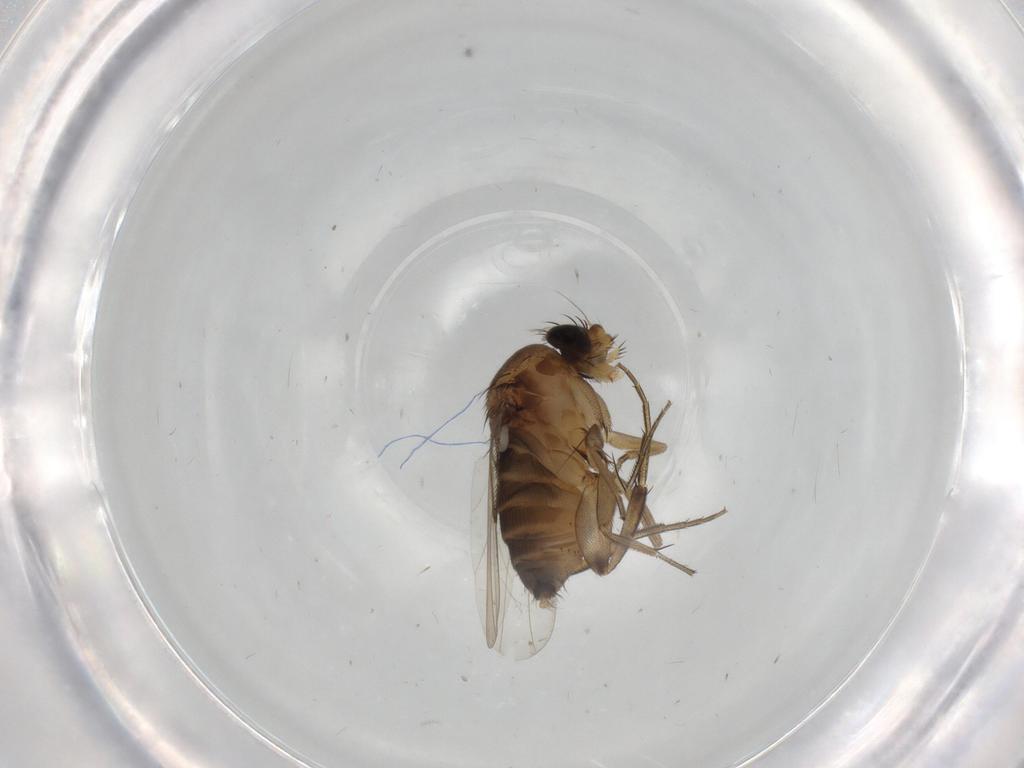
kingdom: Animalia
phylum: Arthropoda
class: Insecta
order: Diptera
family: Phoridae
